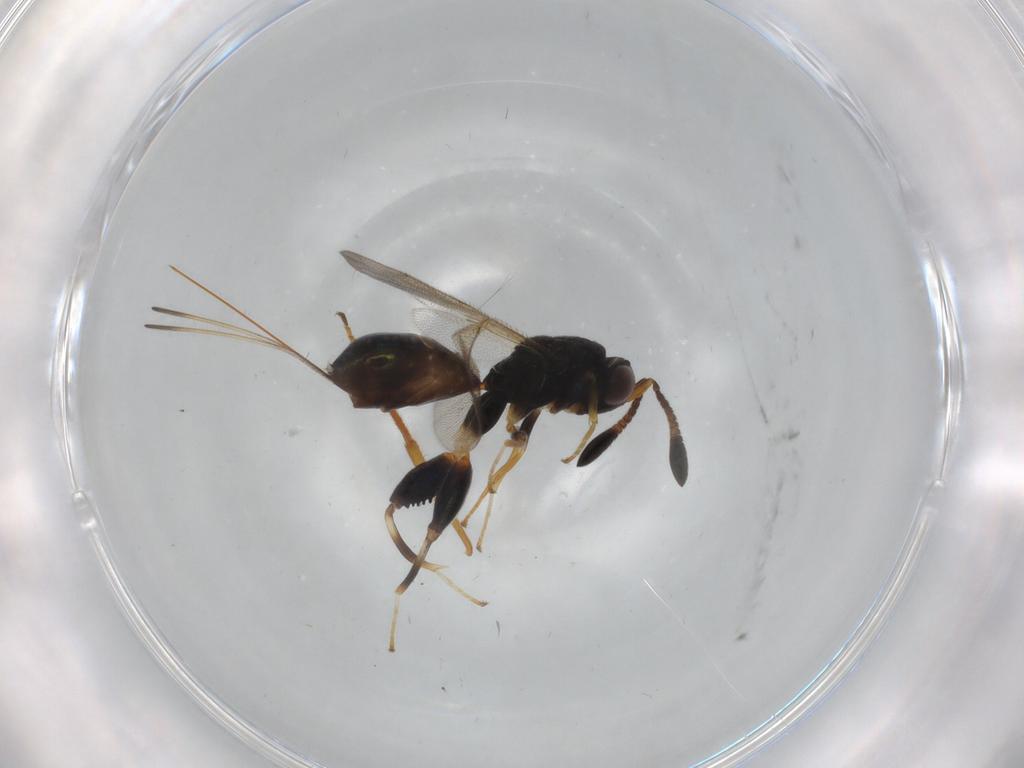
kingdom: Animalia
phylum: Arthropoda
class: Insecta
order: Hymenoptera
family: Torymidae
